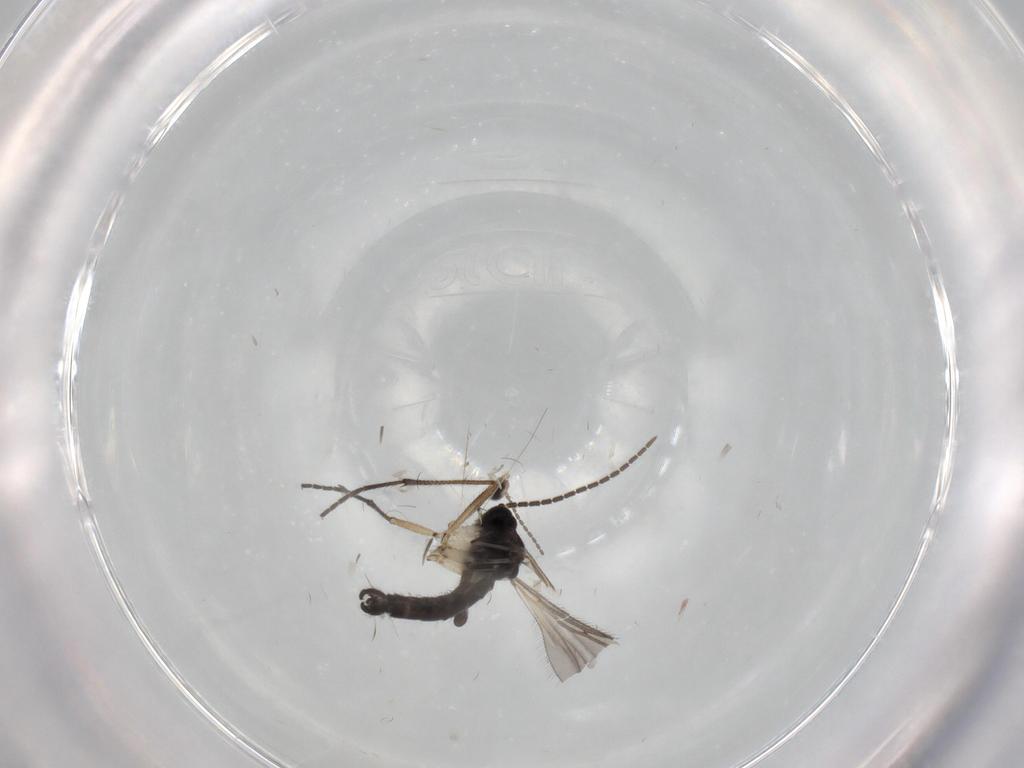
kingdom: Animalia
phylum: Arthropoda
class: Insecta
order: Diptera
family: Sciaridae
